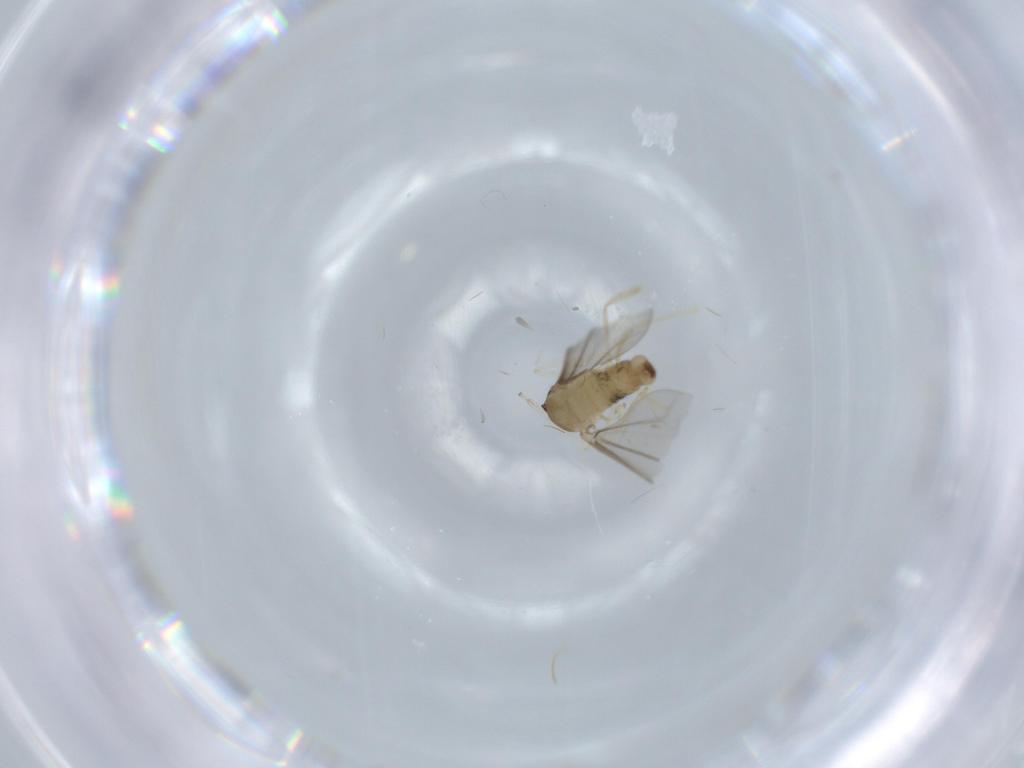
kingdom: Animalia
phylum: Arthropoda
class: Insecta
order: Diptera
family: Cecidomyiidae
